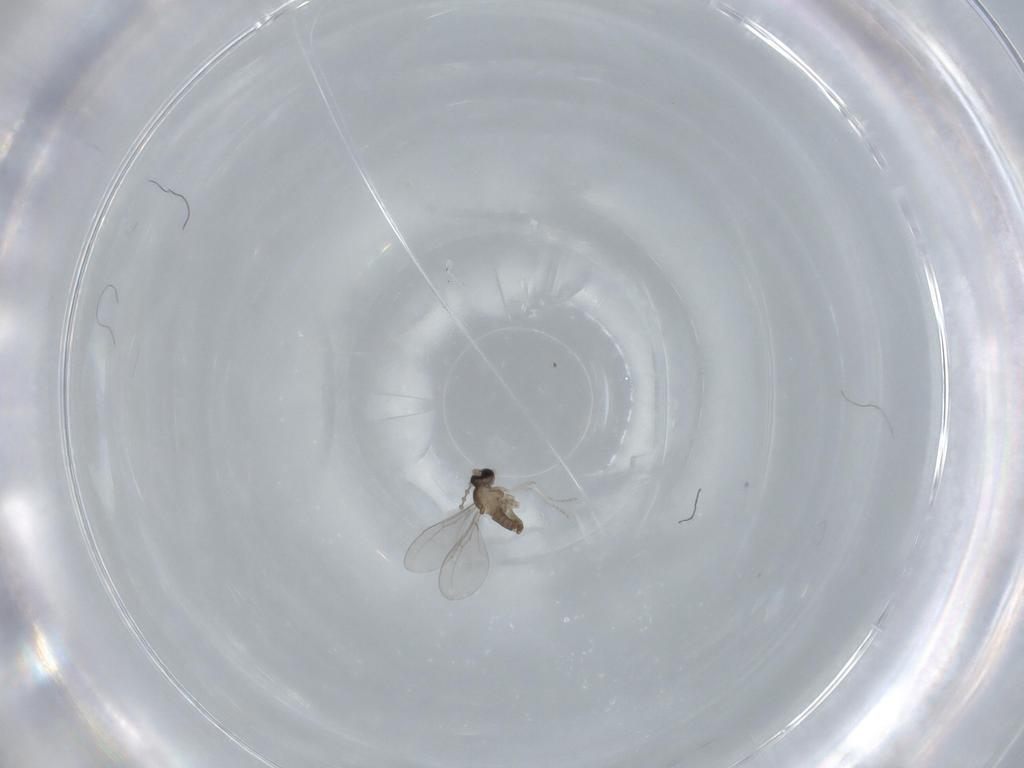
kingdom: Animalia
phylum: Arthropoda
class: Insecta
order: Diptera
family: Cecidomyiidae
